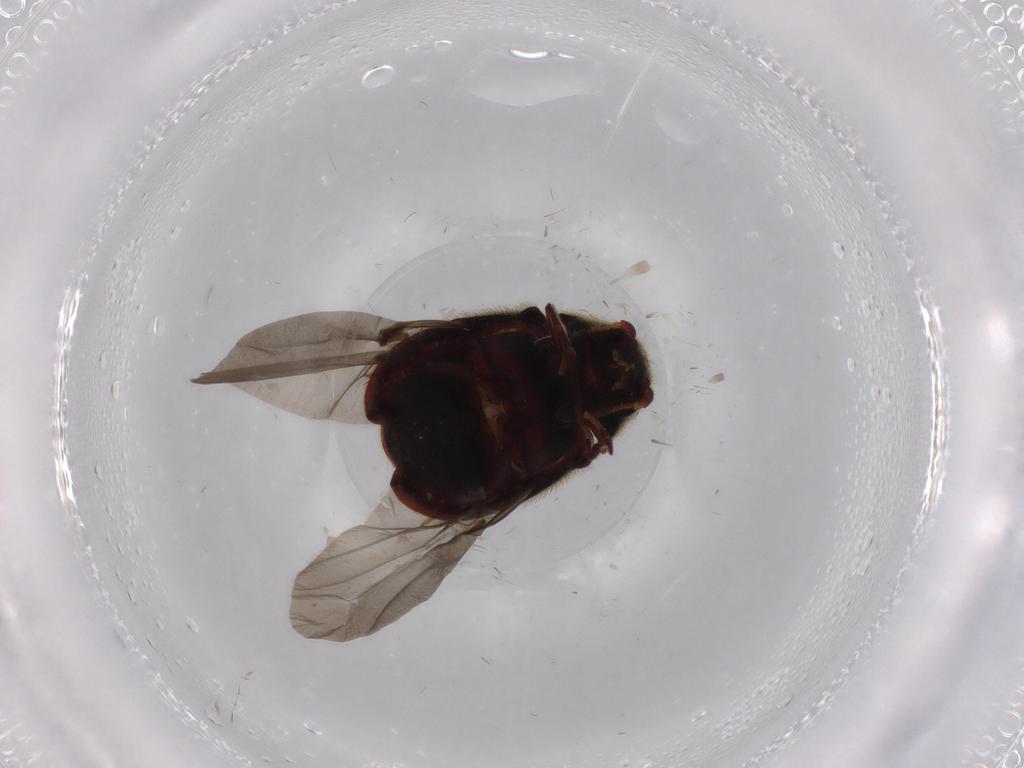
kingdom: Animalia
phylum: Arthropoda
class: Insecta
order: Coleoptera
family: Ptinidae
